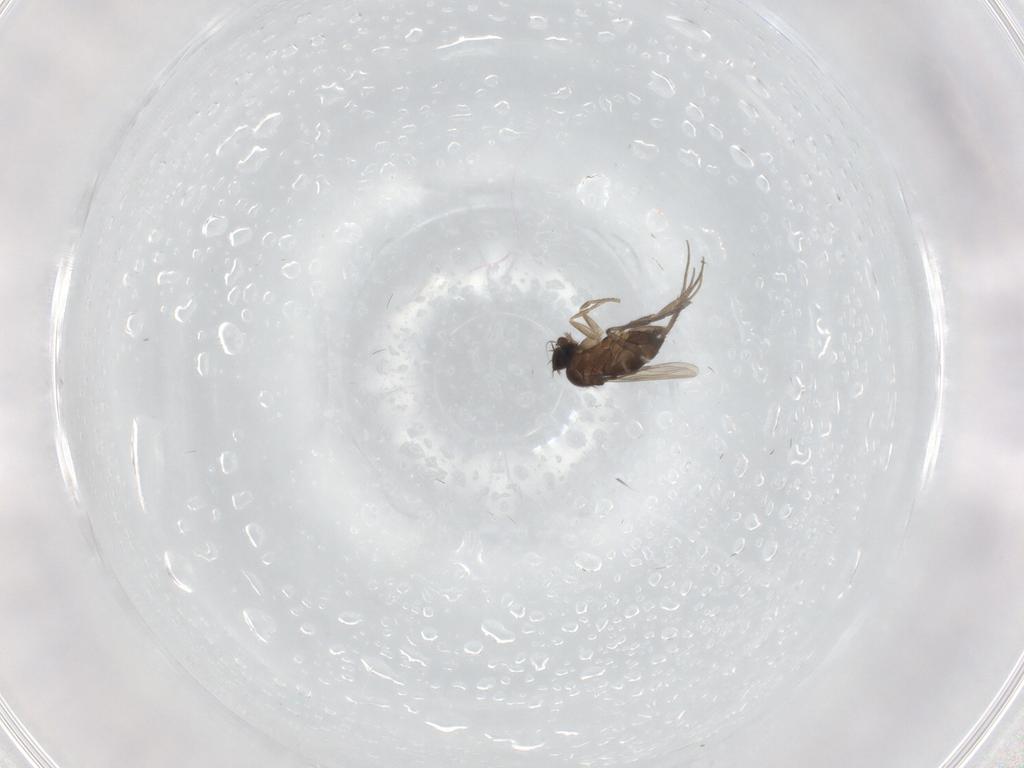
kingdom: Animalia
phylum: Arthropoda
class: Insecta
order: Diptera
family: Phoridae
